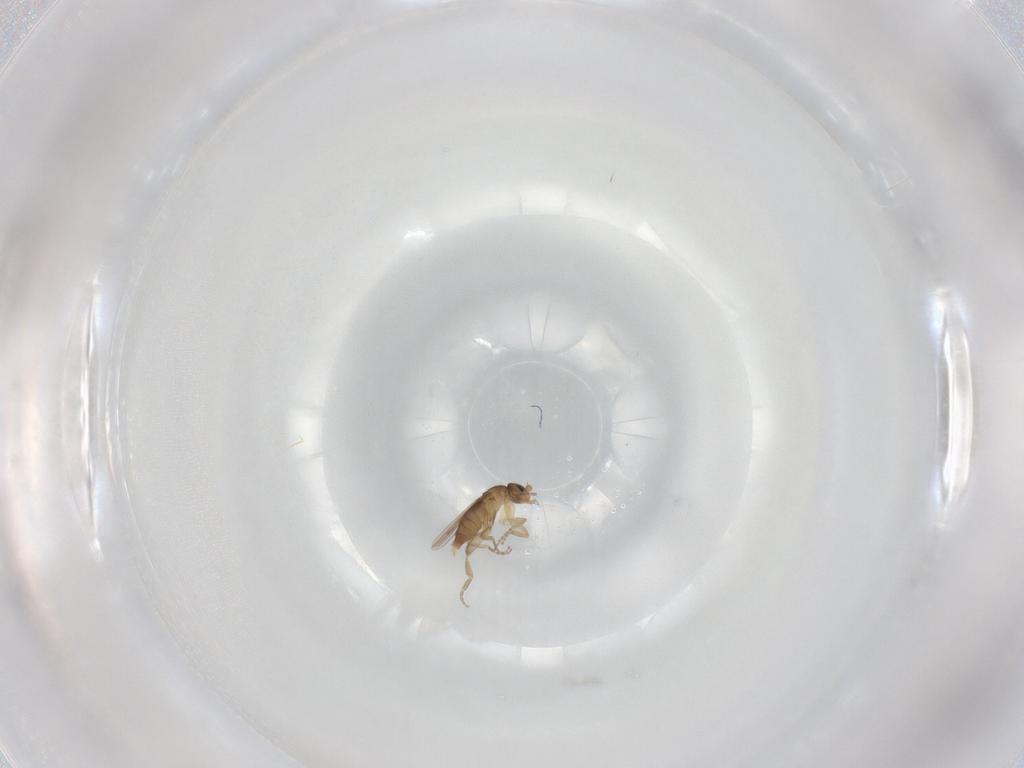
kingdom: Animalia
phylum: Arthropoda
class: Insecta
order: Diptera
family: Phoridae
